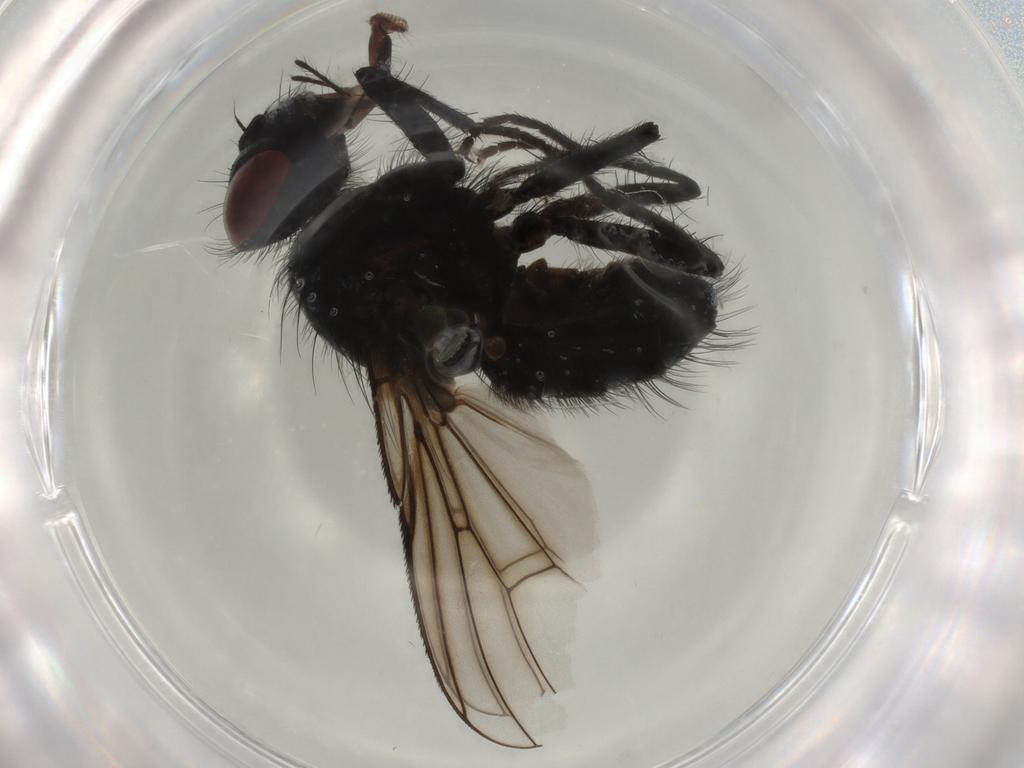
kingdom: Animalia
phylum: Arthropoda
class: Insecta
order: Diptera
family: Muscidae
